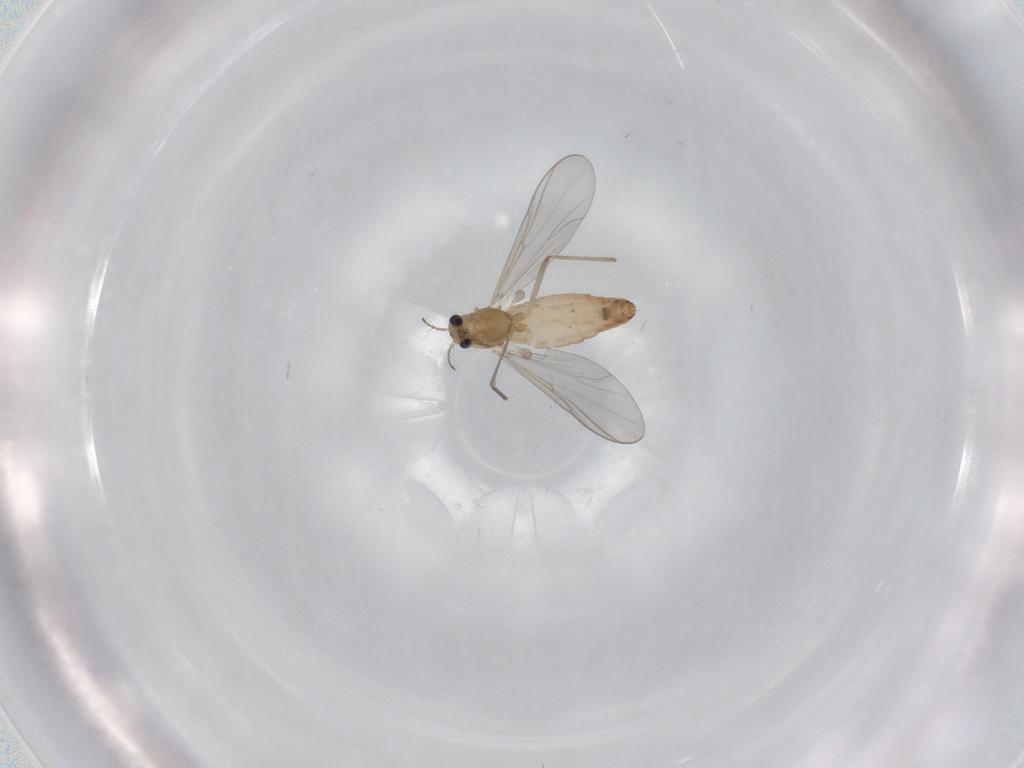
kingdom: Animalia
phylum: Arthropoda
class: Insecta
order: Diptera
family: Chironomidae
